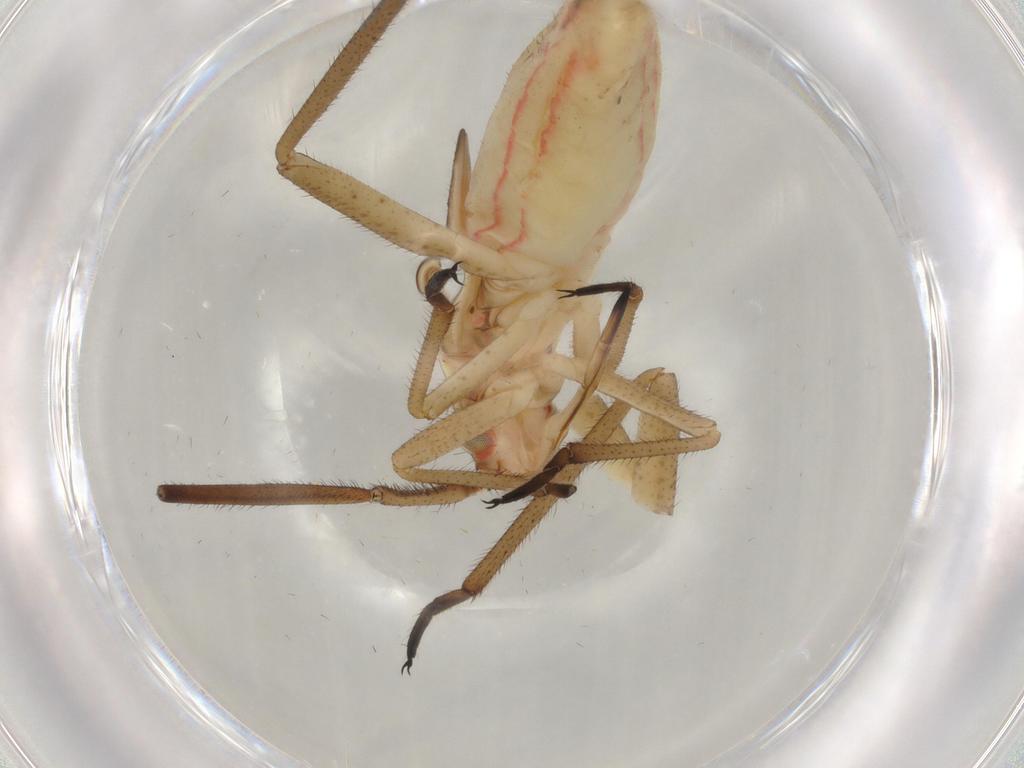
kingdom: Animalia
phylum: Arthropoda
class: Insecta
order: Hemiptera
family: Miridae
